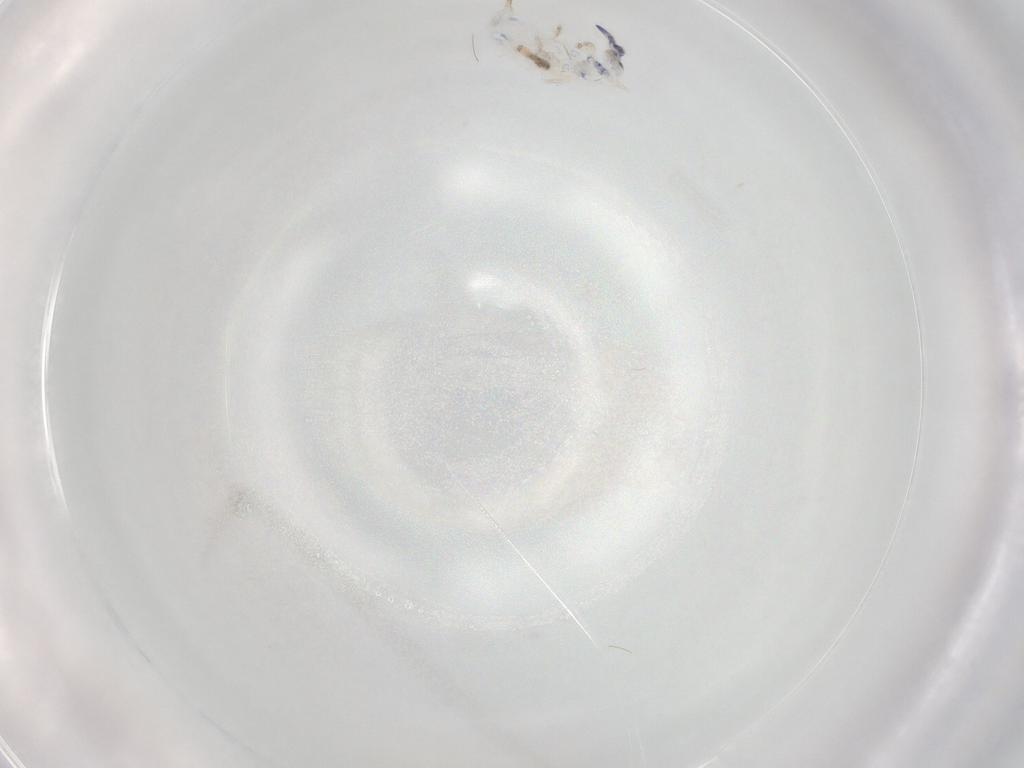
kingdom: Animalia
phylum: Arthropoda
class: Collembola
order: Entomobryomorpha
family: Entomobryidae
